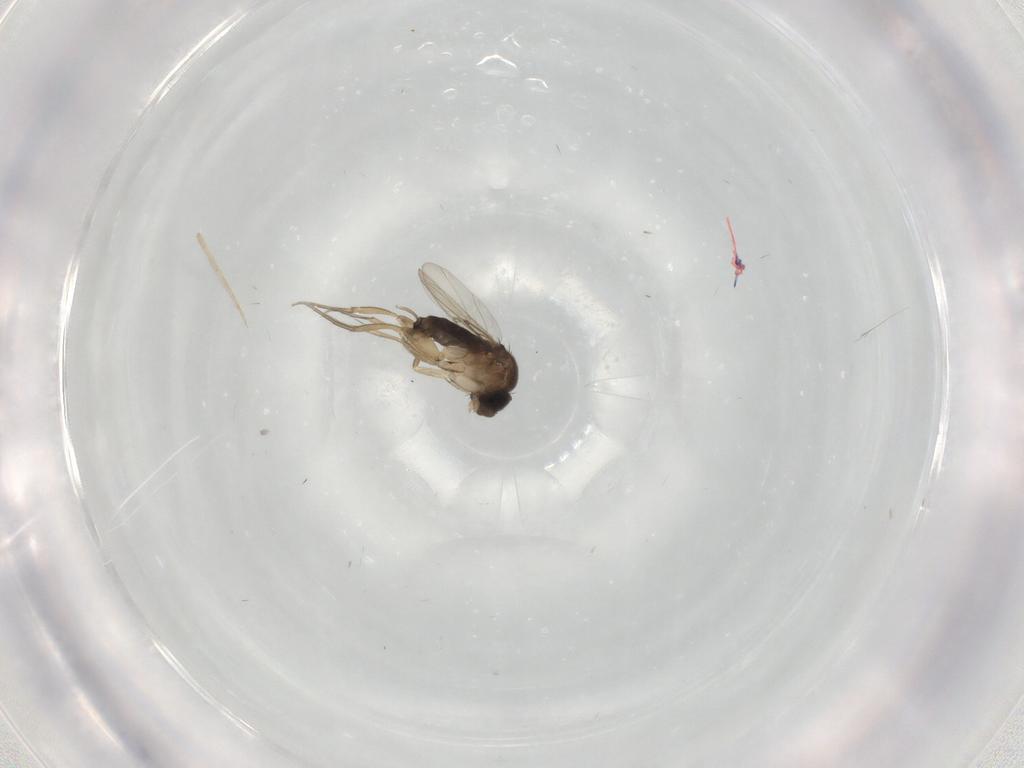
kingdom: Animalia
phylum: Arthropoda
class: Insecta
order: Diptera
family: Phoridae
